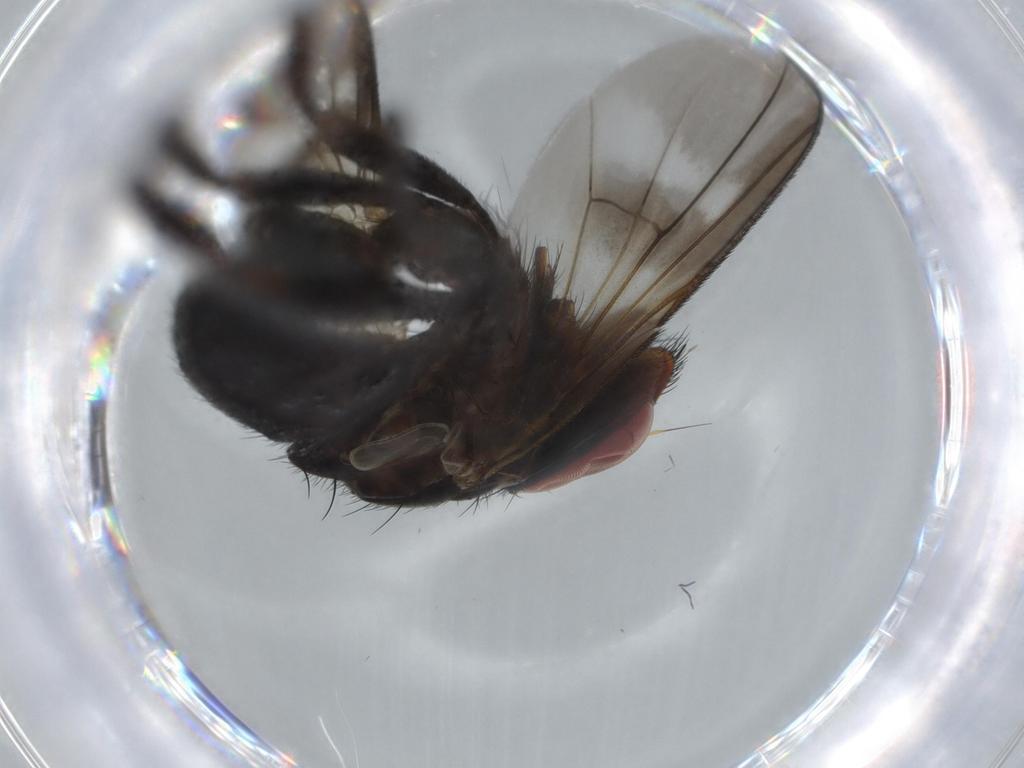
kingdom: Animalia
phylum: Arthropoda
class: Insecta
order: Diptera
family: Calliphoridae
